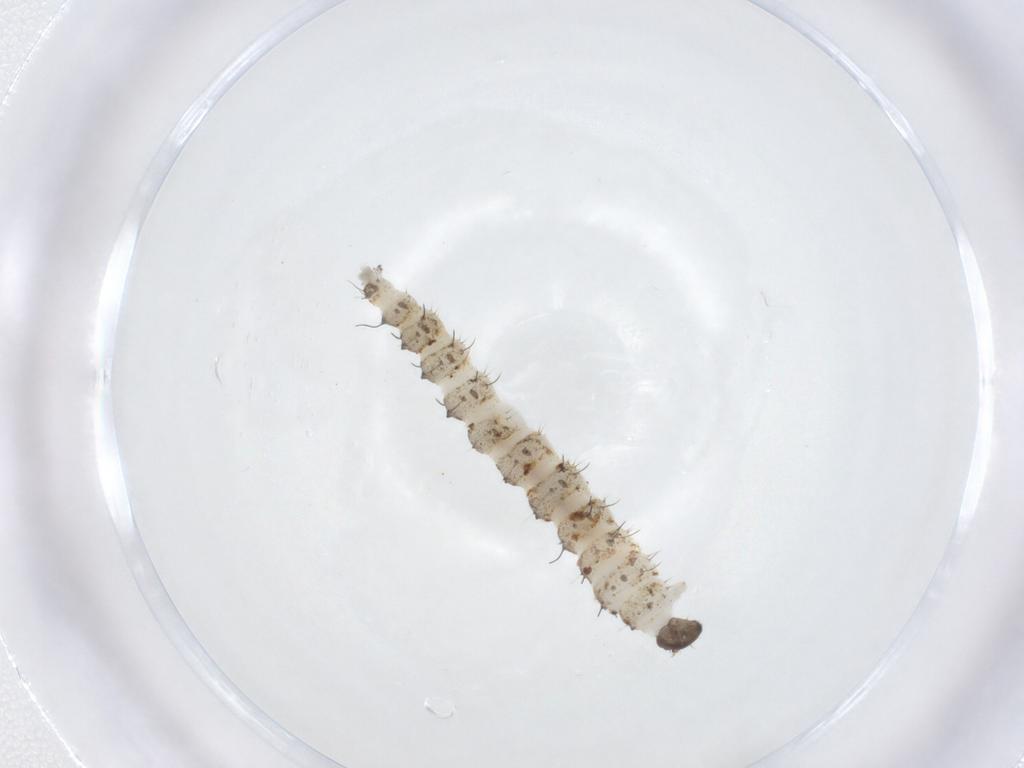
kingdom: Animalia
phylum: Arthropoda
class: Insecta
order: Diptera
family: Ceratopogonidae
